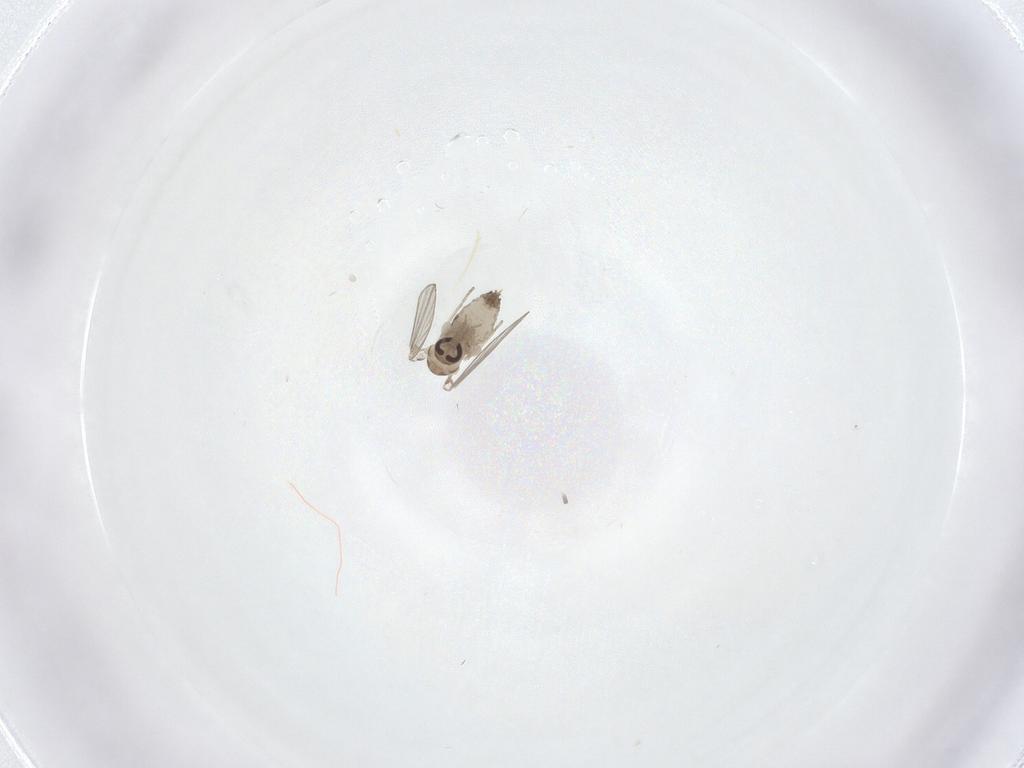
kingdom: Animalia
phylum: Arthropoda
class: Insecta
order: Diptera
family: Psychodidae
